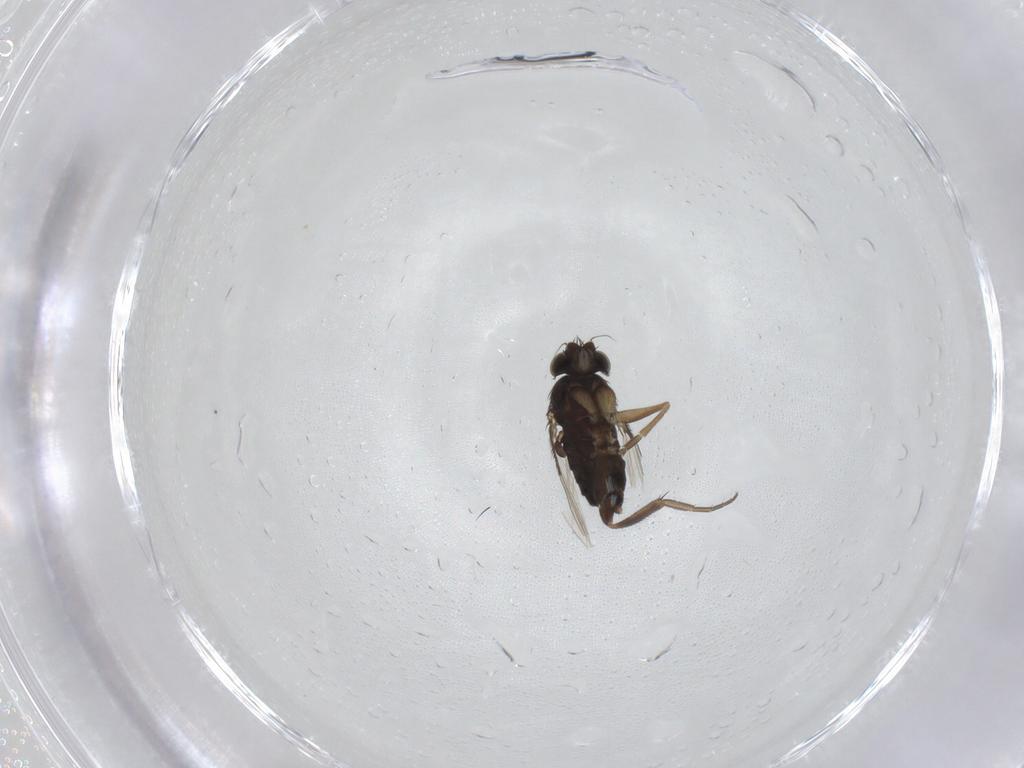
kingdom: Animalia
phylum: Arthropoda
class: Insecta
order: Diptera
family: Phoridae
